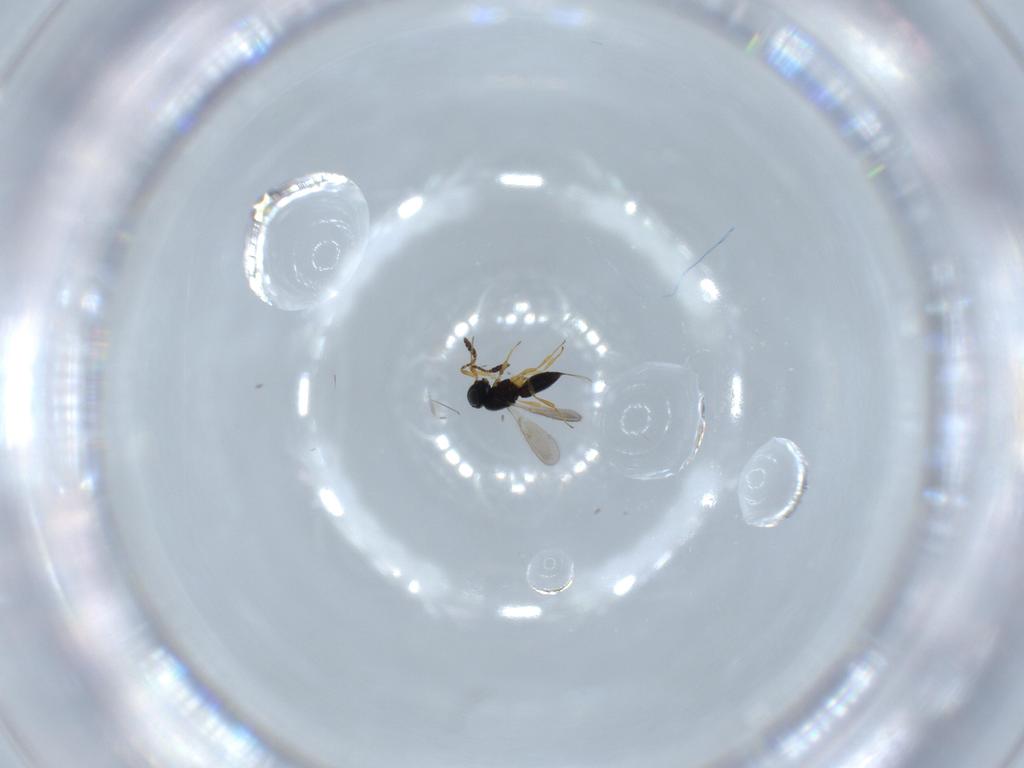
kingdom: Animalia
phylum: Arthropoda
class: Insecta
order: Hymenoptera
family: Scelionidae
